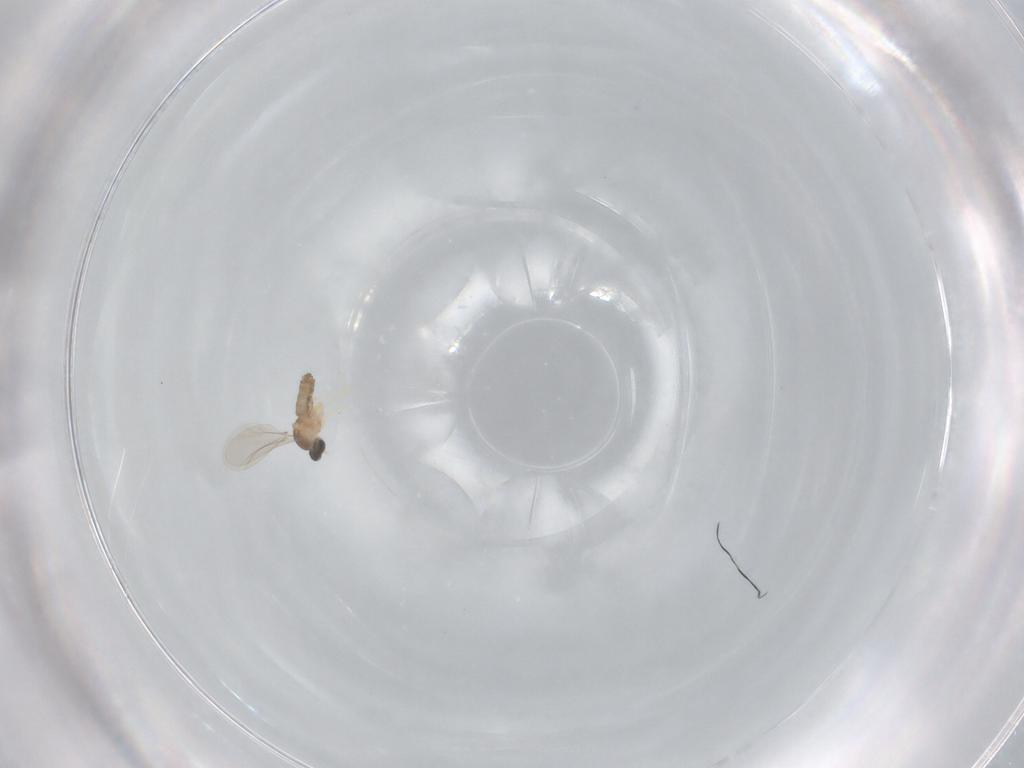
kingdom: Animalia
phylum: Arthropoda
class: Insecta
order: Diptera
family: Cecidomyiidae
